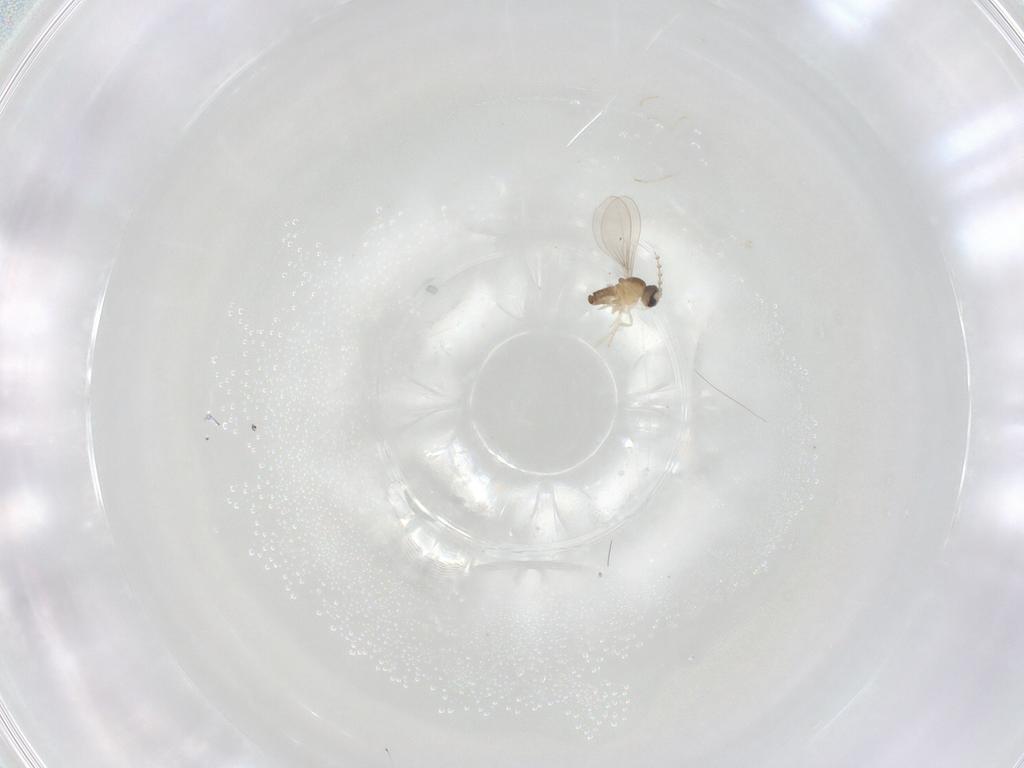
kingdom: Animalia
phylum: Arthropoda
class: Insecta
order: Diptera
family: Cecidomyiidae
